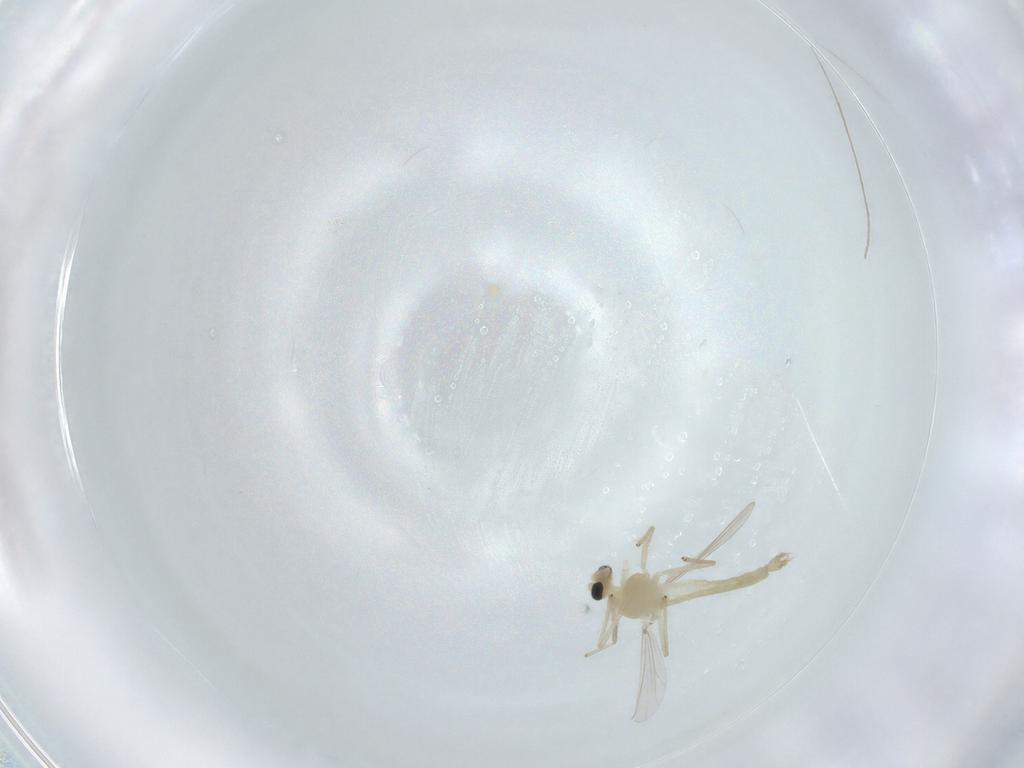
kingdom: Animalia
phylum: Arthropoda
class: Insecta
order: Diptera
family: Chironomidae
